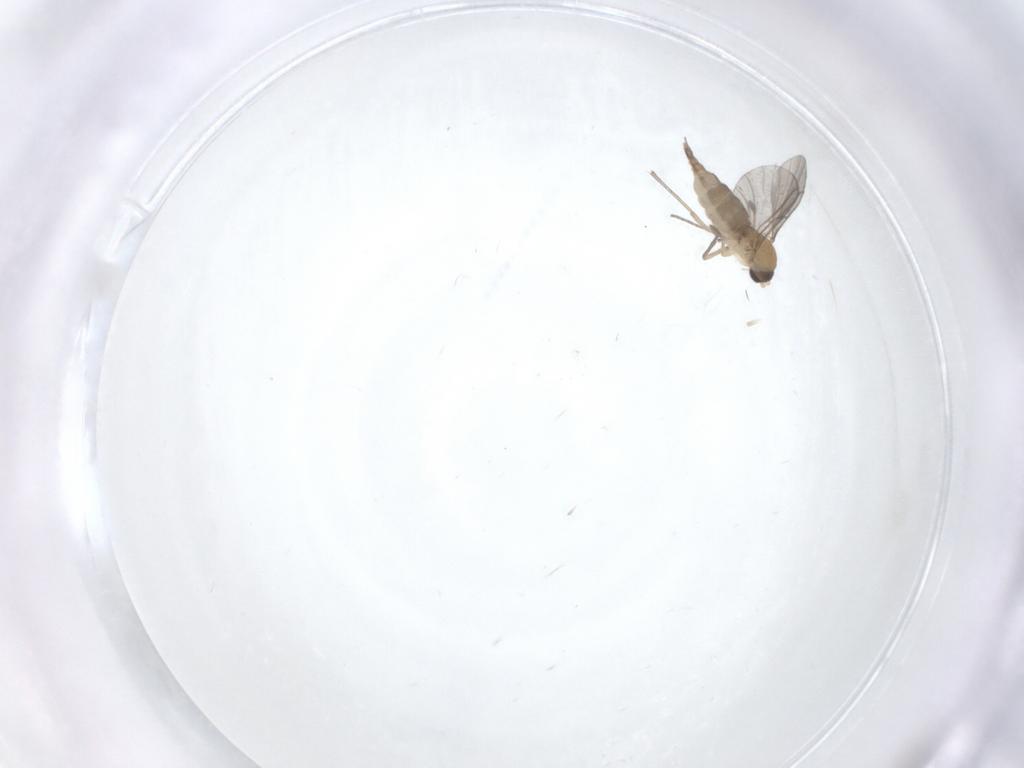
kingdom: Animalia
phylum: Arthropoda
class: Insecta
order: Diptera
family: Sciaridae
